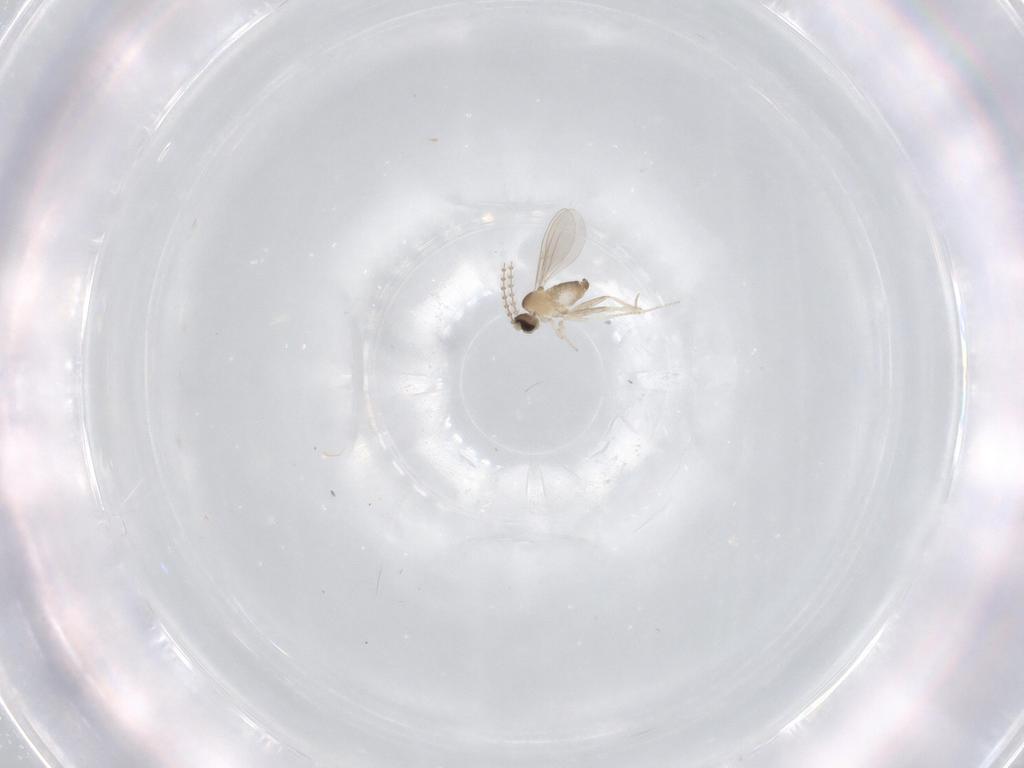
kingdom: Animalia
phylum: Arthropoda
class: Insecta
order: Diptera
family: Cecidomyiidae
